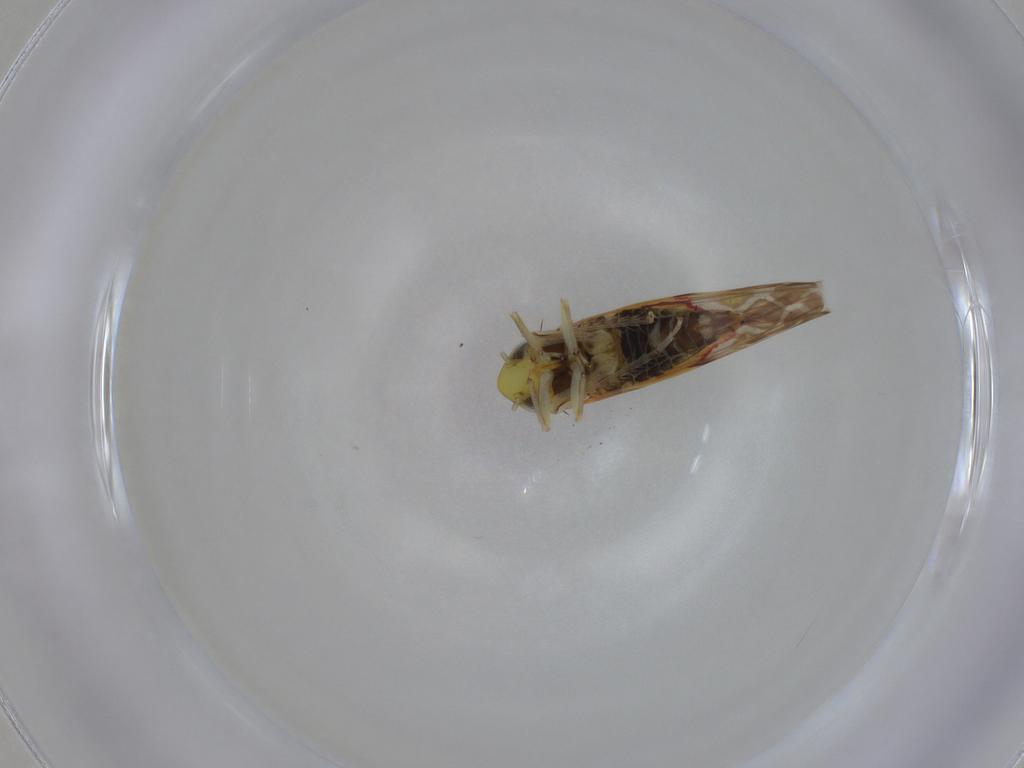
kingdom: Animalia
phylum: Arthropoda
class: Insecta
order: Hemiptera
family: Cicadellidae
